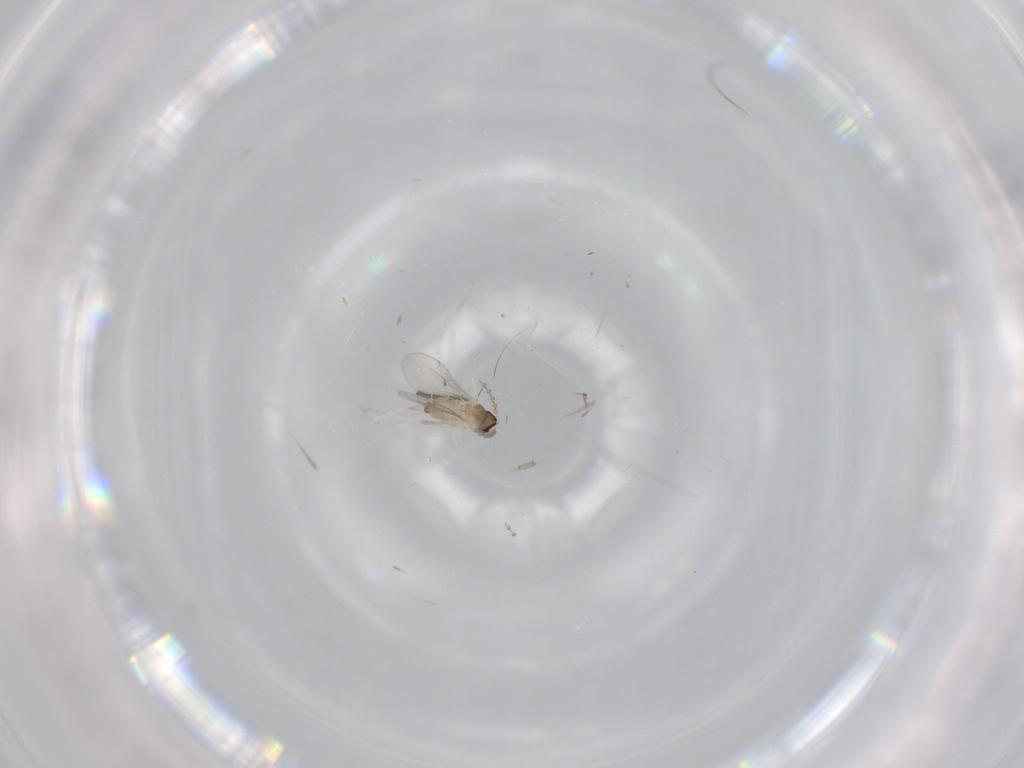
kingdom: Animalia
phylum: Arthropoda
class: Insecta
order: Diptera
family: Sciaridae
